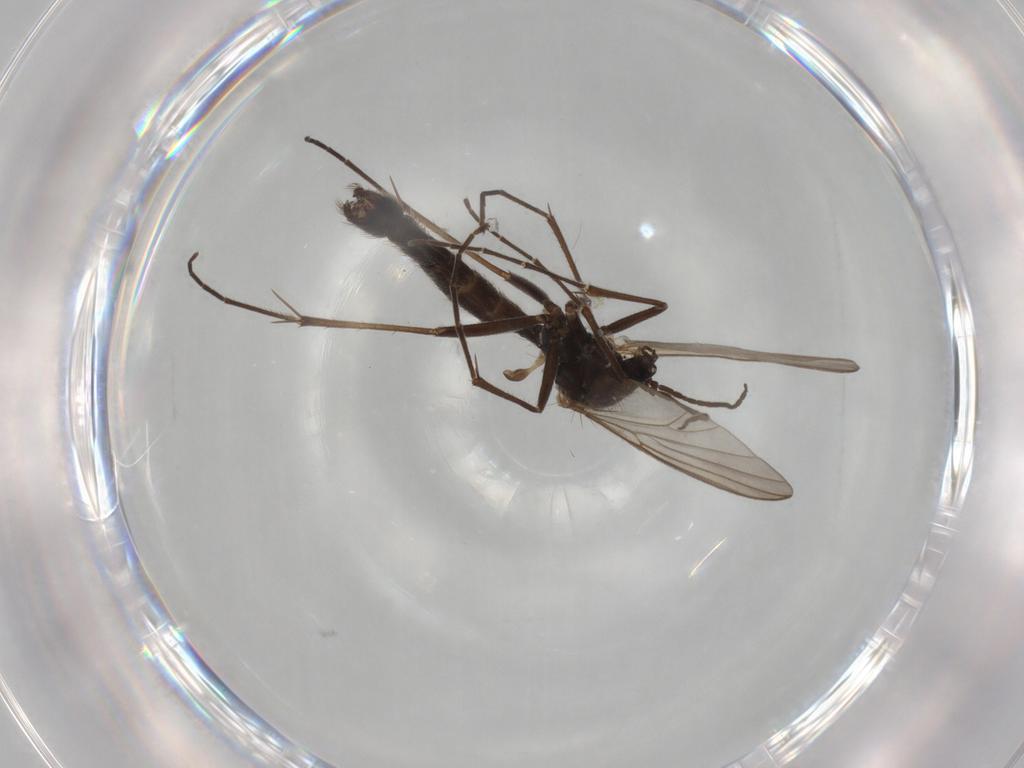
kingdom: Animalia
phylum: Arthropoda
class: Insecta
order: Diptera
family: Mycetophilidae
